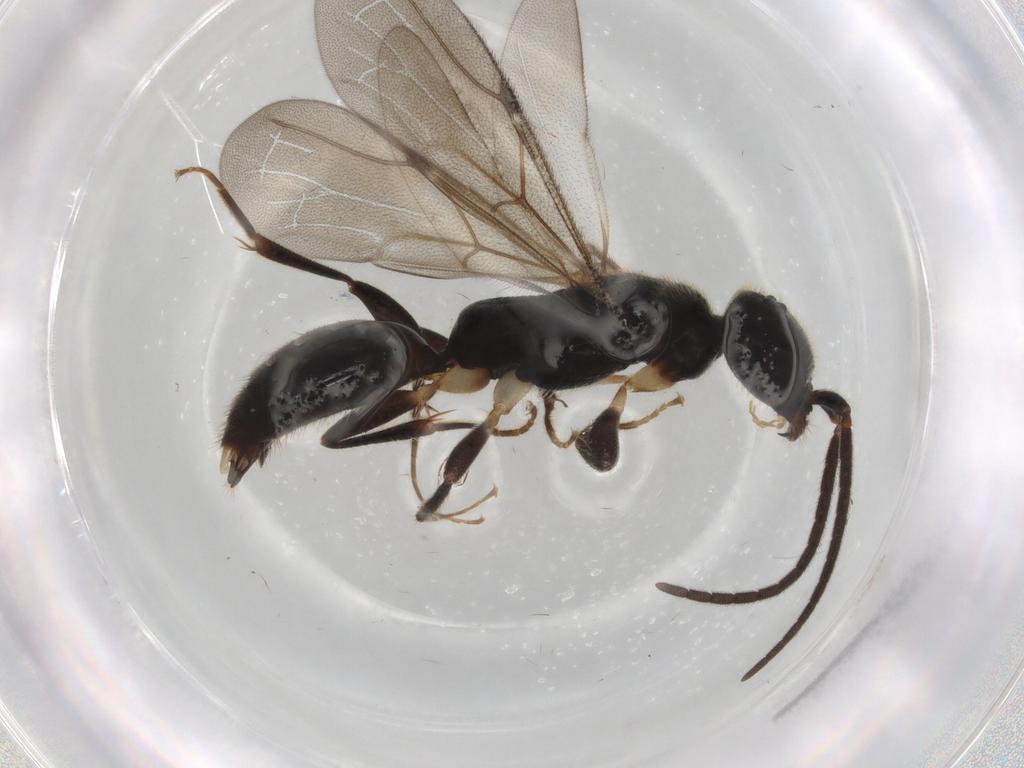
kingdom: Animalia
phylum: Arthropoda
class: Insecta
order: Hymenoptera
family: Bethylidae
